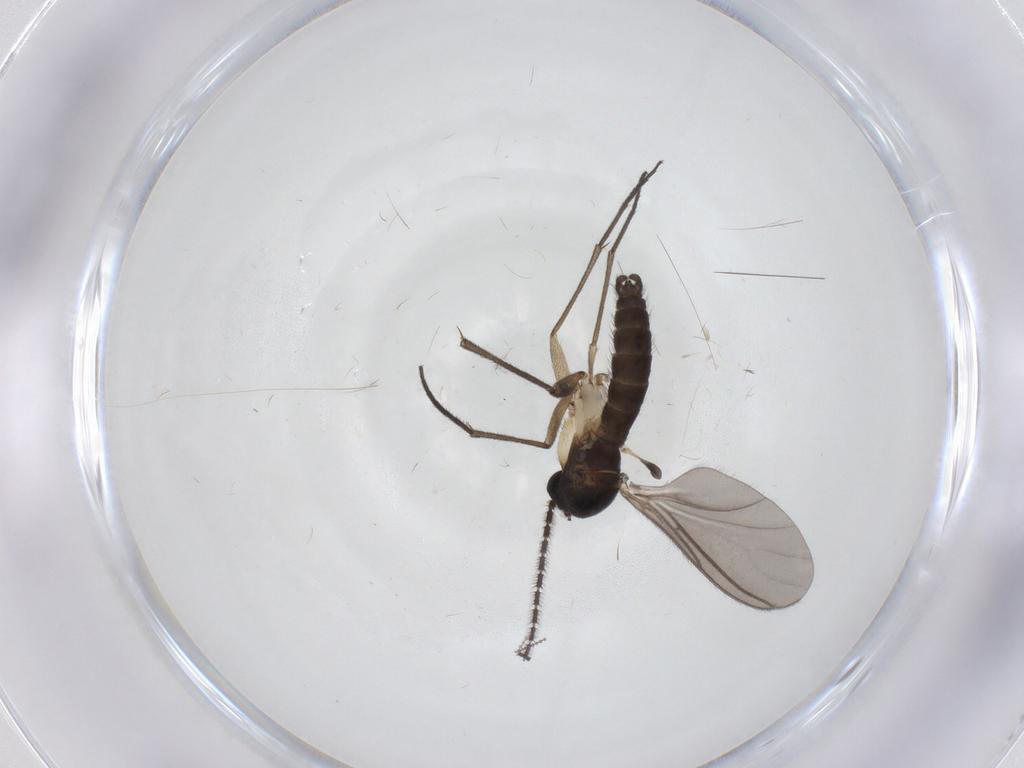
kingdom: Animalia
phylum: Arthropoda
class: Insecta
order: Diptera
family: Sciaridae
